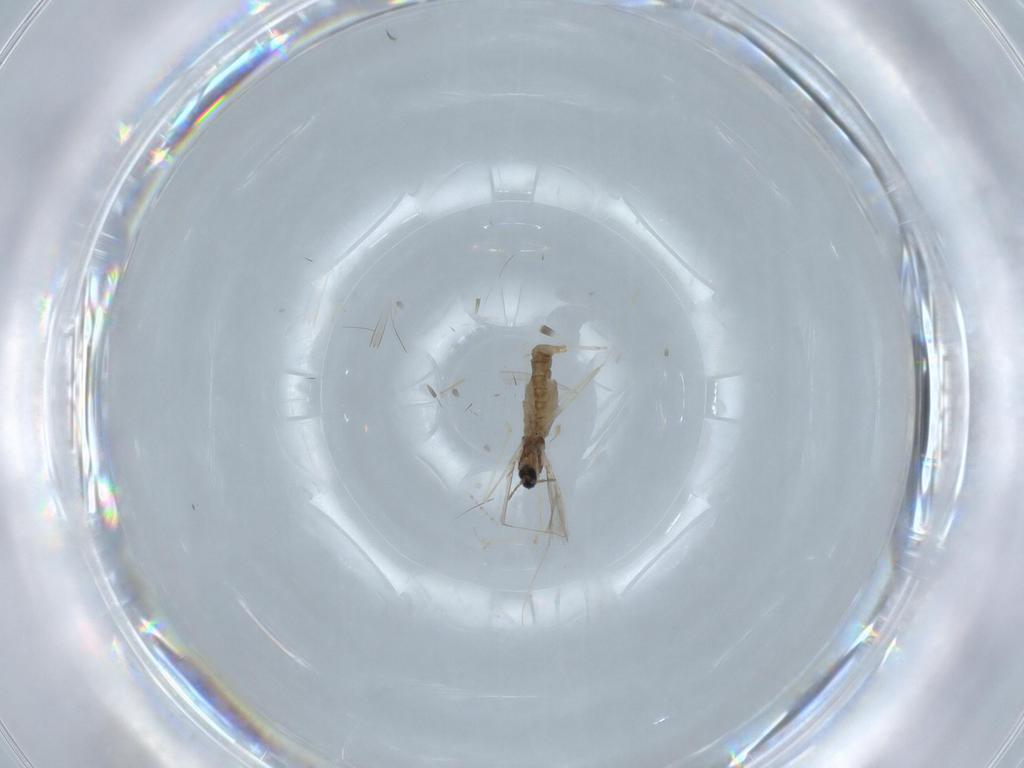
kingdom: Animalia
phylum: Arthropoda
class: Insecta
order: Diptera
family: Cecidomyiidae
